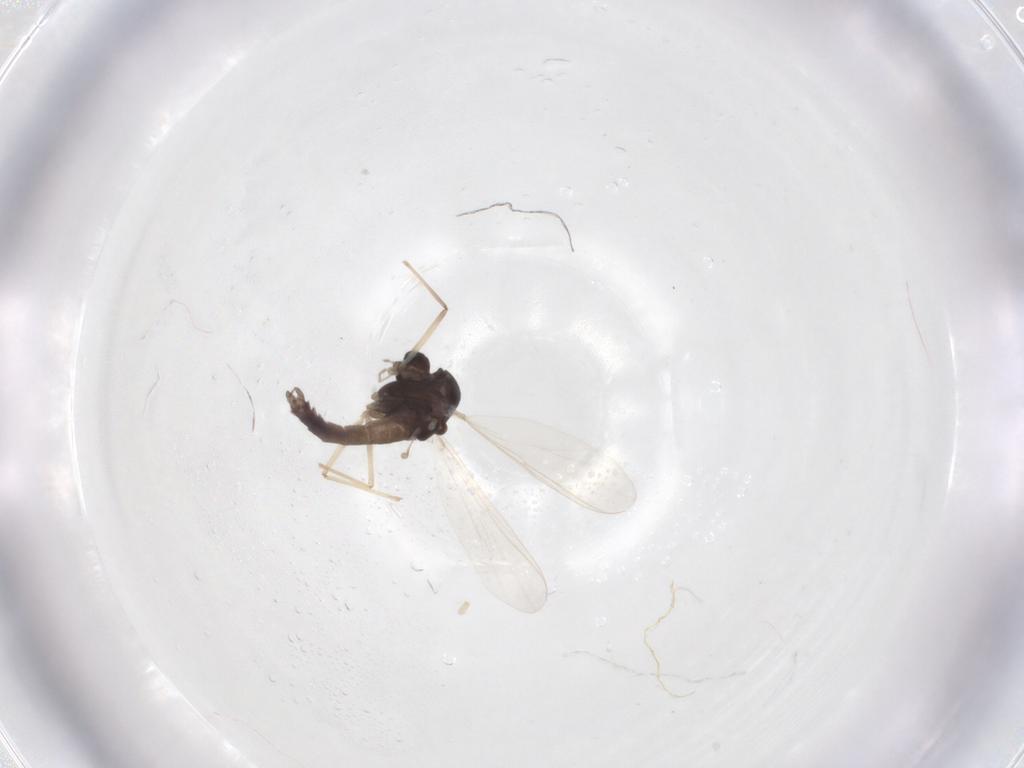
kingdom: Animalia
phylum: Arthropoda
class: Insecta
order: Diptera
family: Chironomidae
